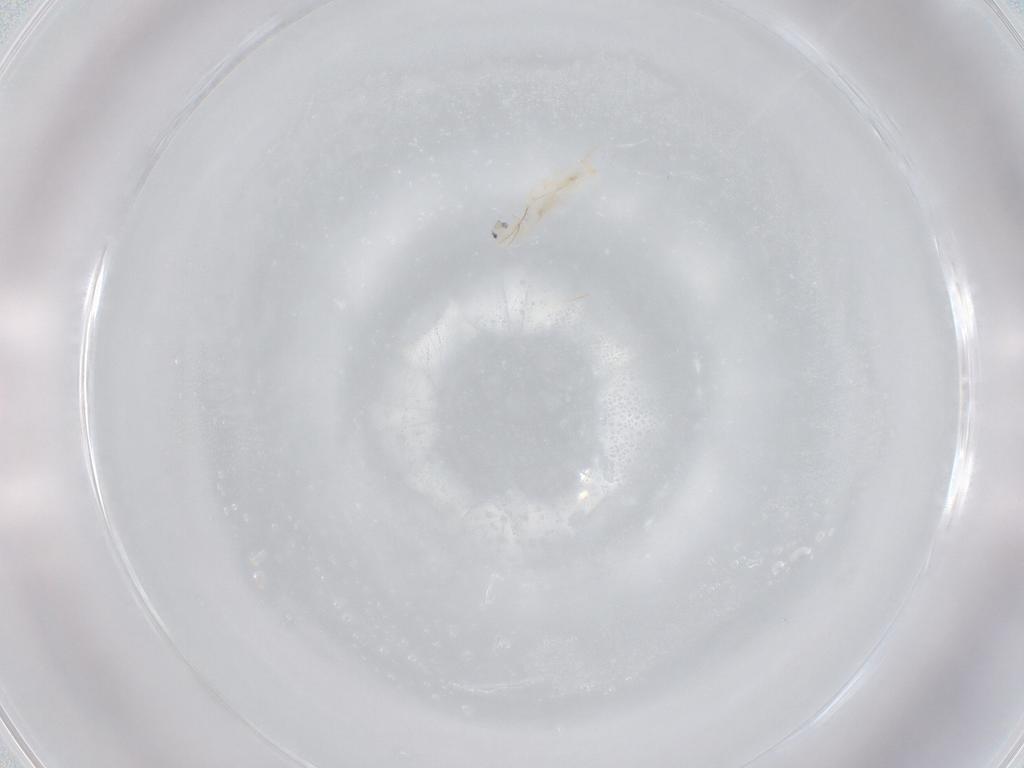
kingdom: Animalia
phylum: Arthropoda
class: Collembola
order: Entomobryomorpha
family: Entomobryidae
